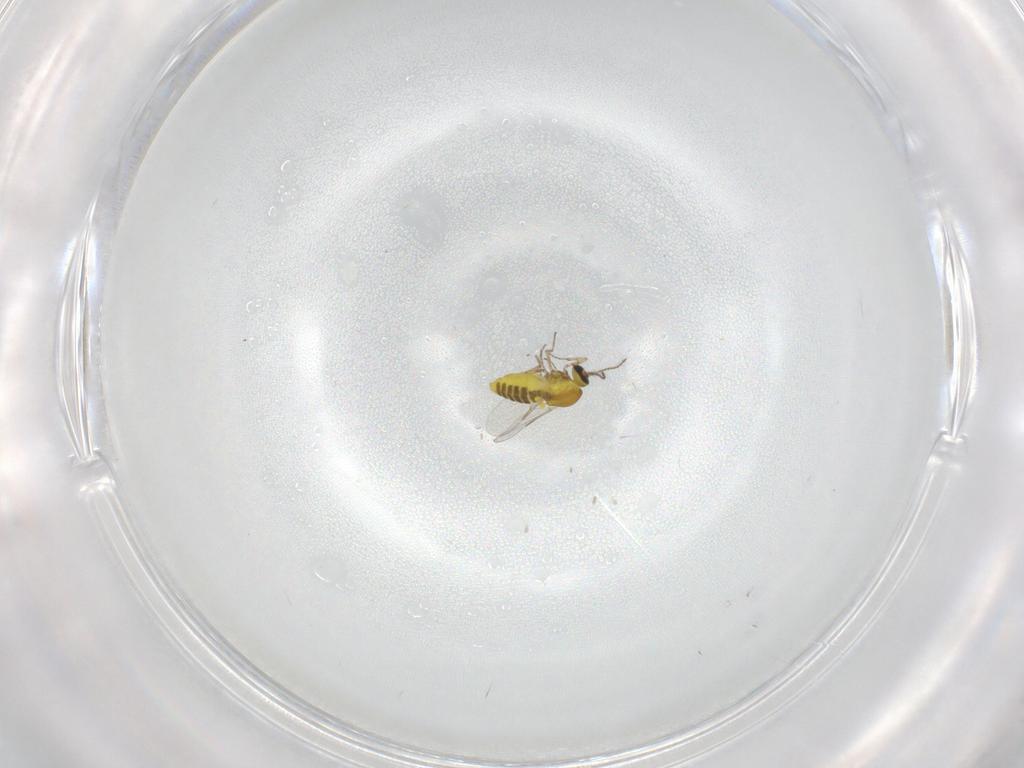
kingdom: Animalia
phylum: Arthropoda
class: Insecta
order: Diptera
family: Ceratopogonidae
